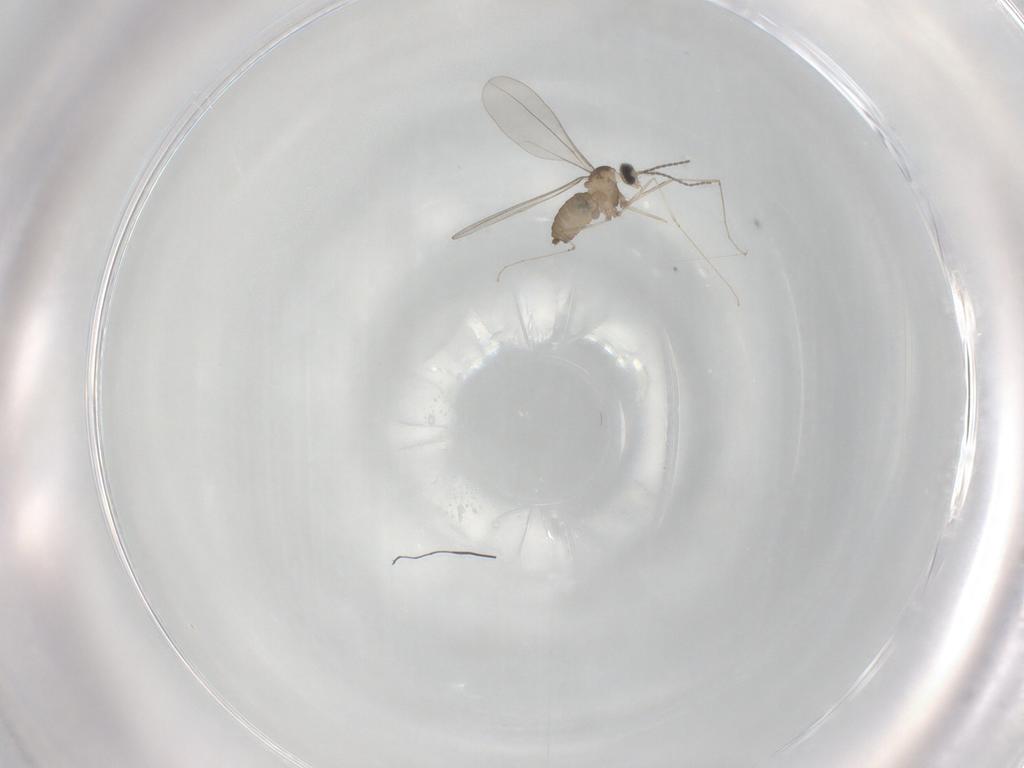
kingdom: Animalia
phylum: Arthropoda
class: Insecta
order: Diptera
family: Cecidomyiidae
